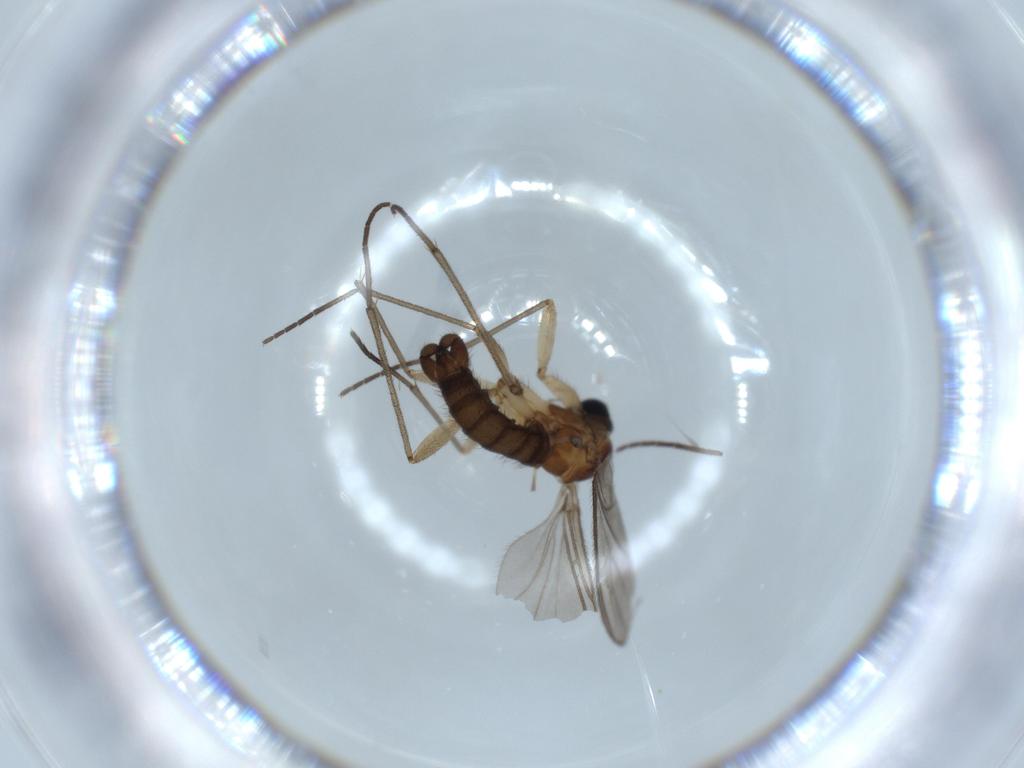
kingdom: Animalia
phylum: Arthropoda
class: Insecta
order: Diptera
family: Sciaridae
